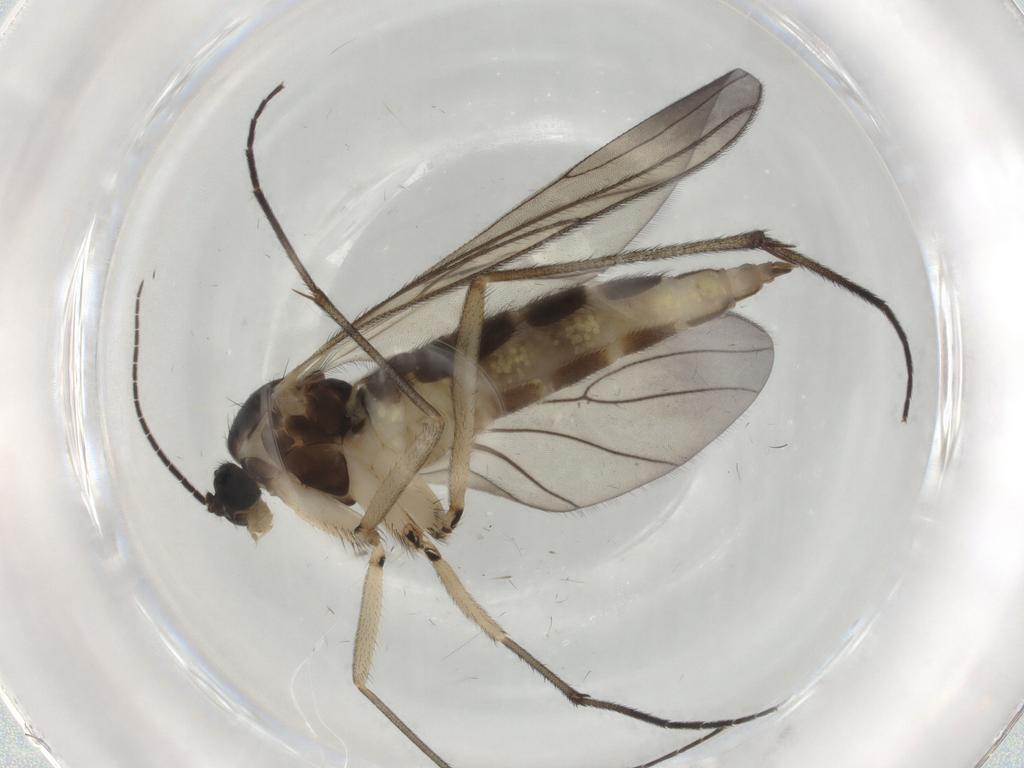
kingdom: Animalia
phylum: Arthropoda
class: Insecta
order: Diptera
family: Sciaridae
